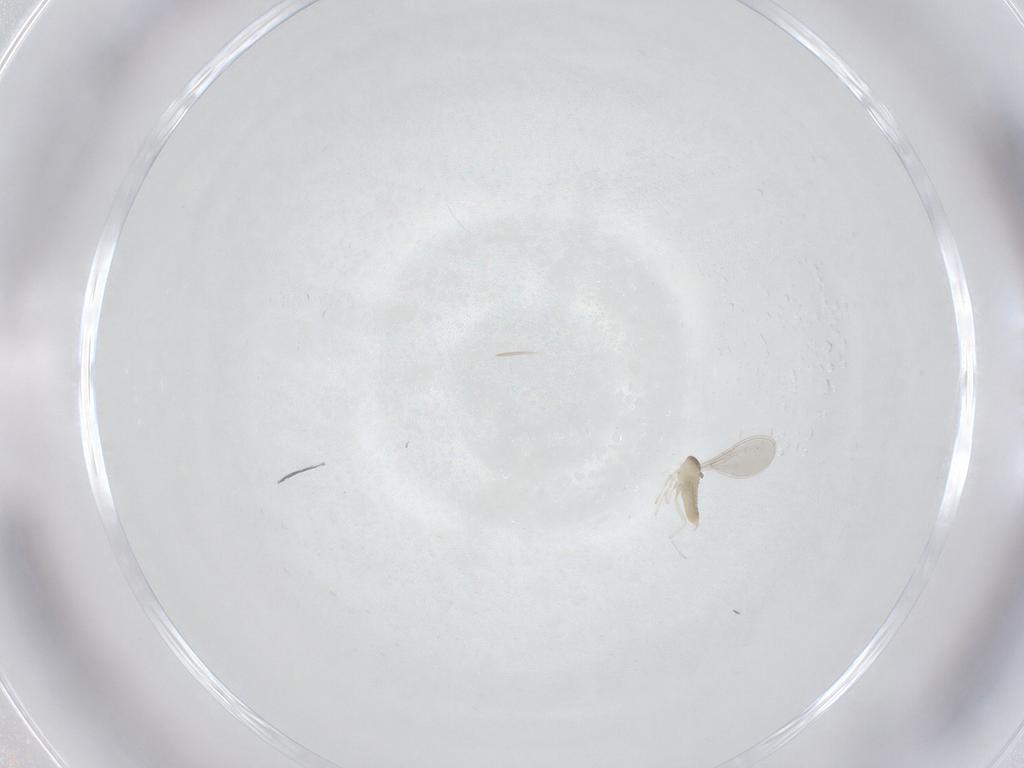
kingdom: Animalia
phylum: Arthropoda
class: Insecta
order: Diptera
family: Cecidomyiidae
